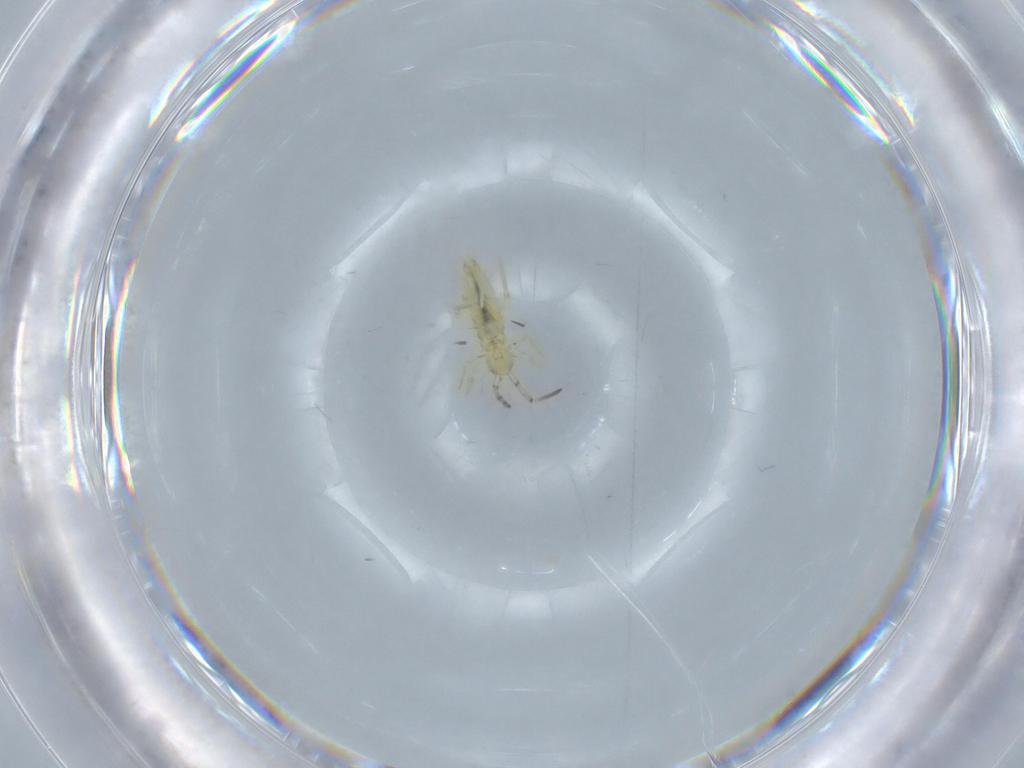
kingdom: Animalia
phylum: Arthropoda
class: Collembola
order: Entomobryomorpha
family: Paronellidae
